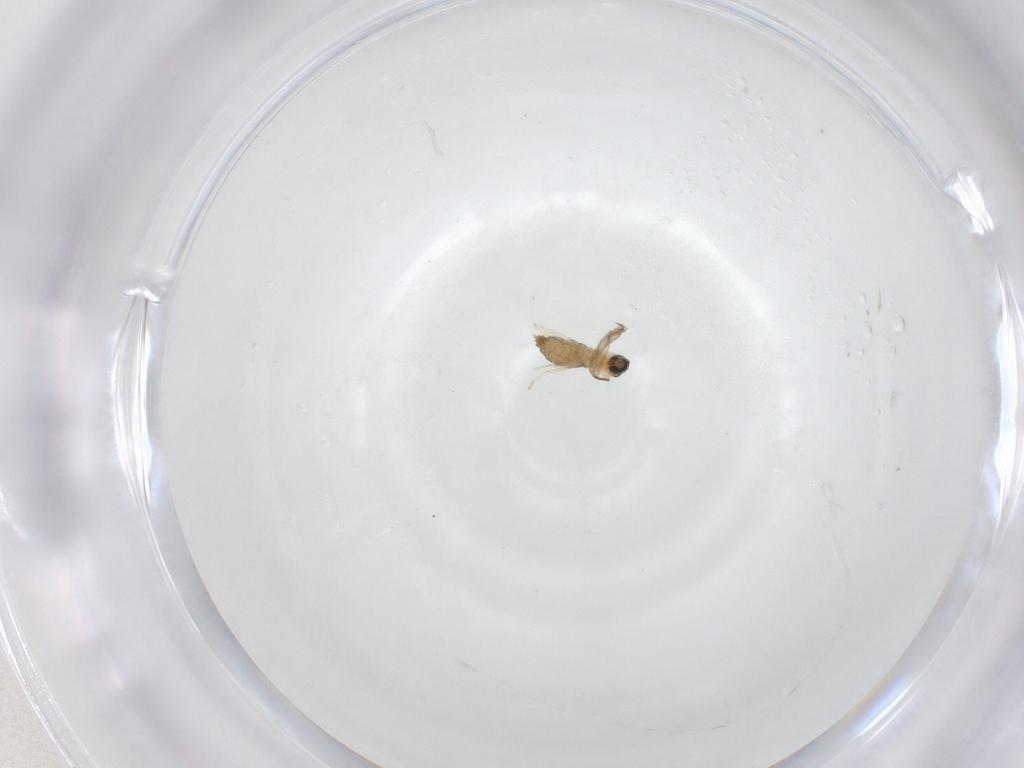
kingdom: Animalia
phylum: Arthropoda
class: Insecta
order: Diptera
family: Cecidomyiidae
